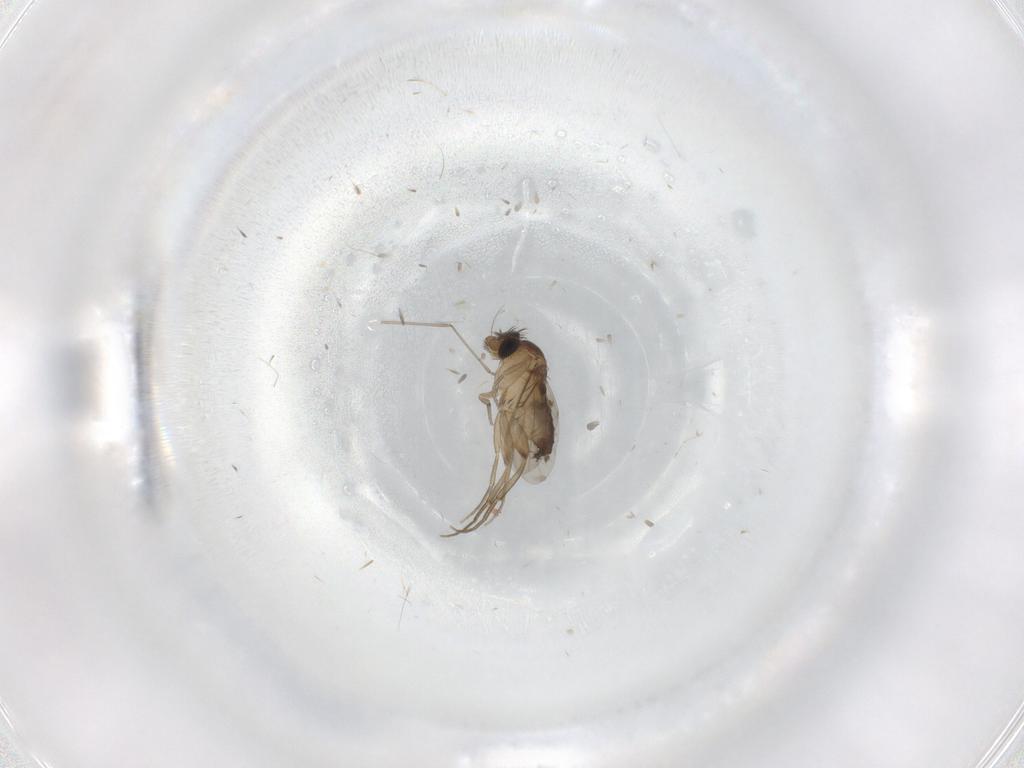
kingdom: Animalia
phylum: Arthropoda
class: Insecta
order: Diptera
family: Phoridae
